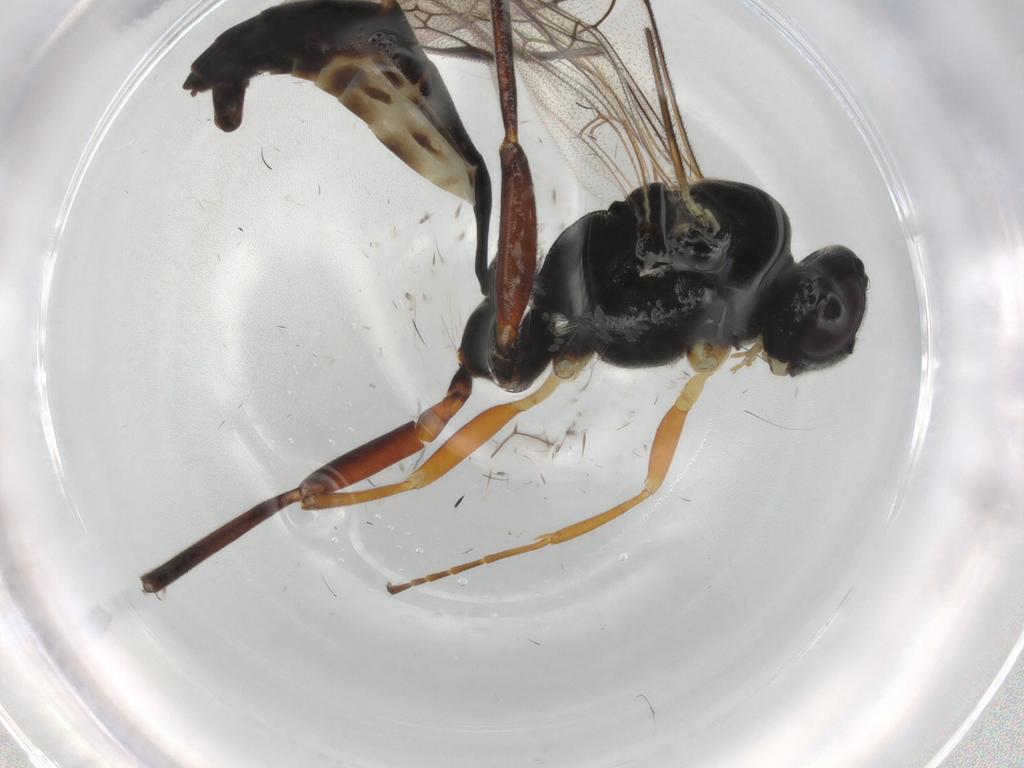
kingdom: Animalia
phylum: Arthropoda
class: Insecta
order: Hymenoptera
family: Ichneumonidae
